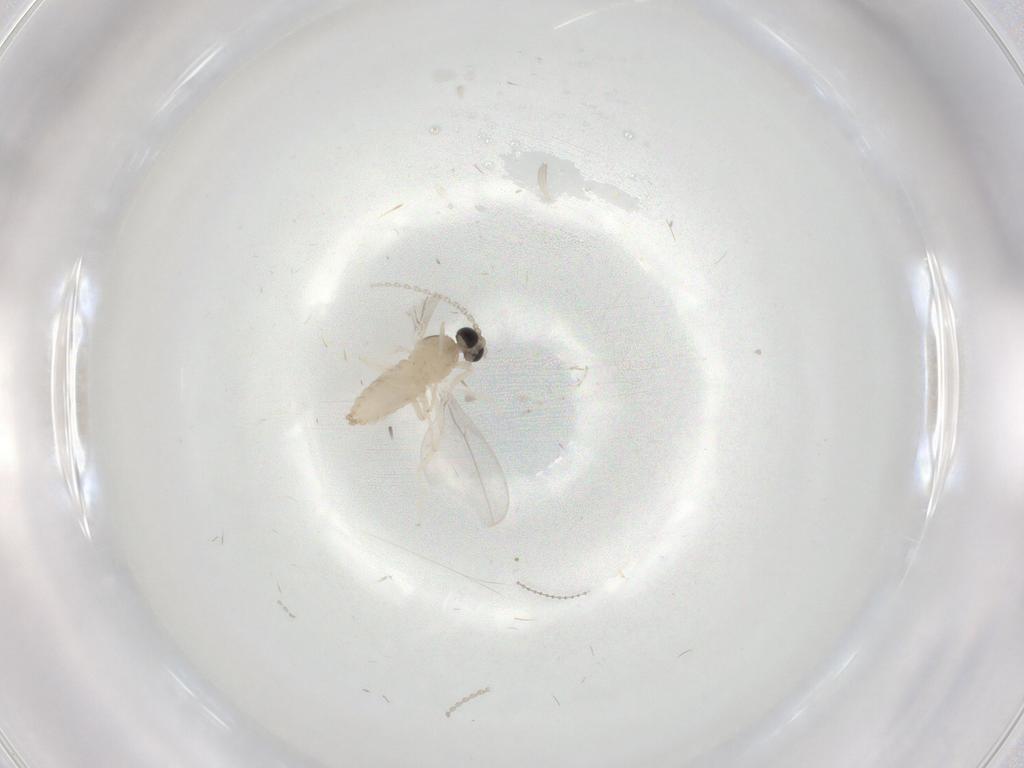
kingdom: Animalia
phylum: Arthropoda
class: Insecta
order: Diptera
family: Cecidomyiidae
